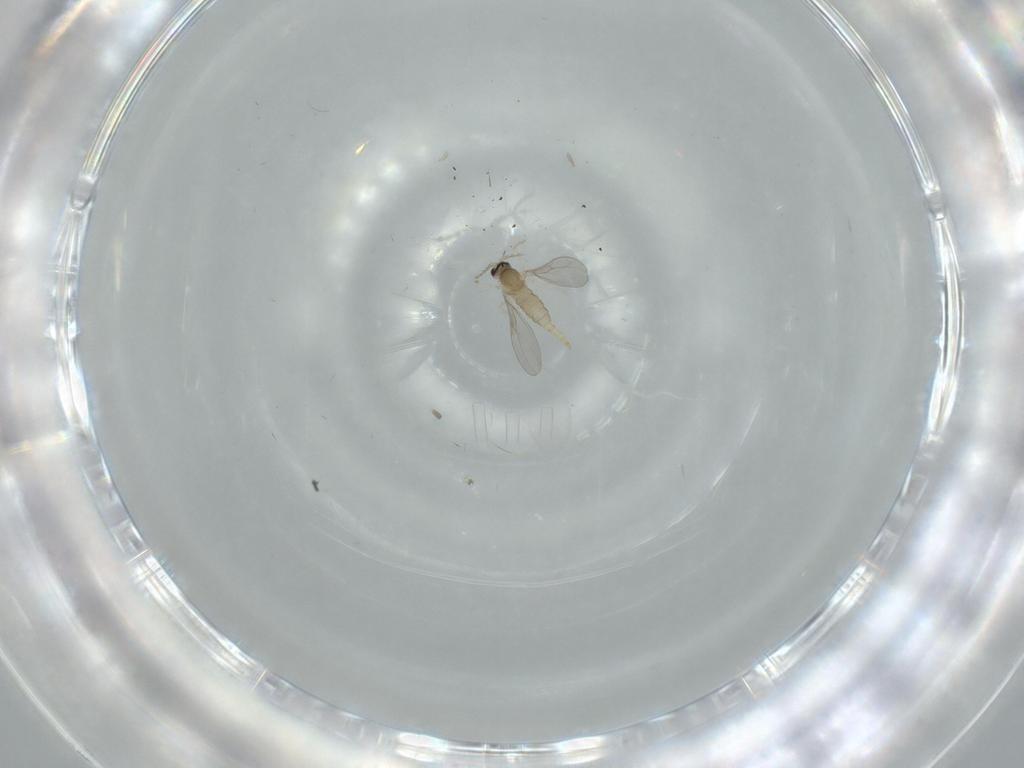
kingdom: Animalia
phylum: Arthropoda
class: Insecta
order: Diptera
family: Cecidomyiidae
